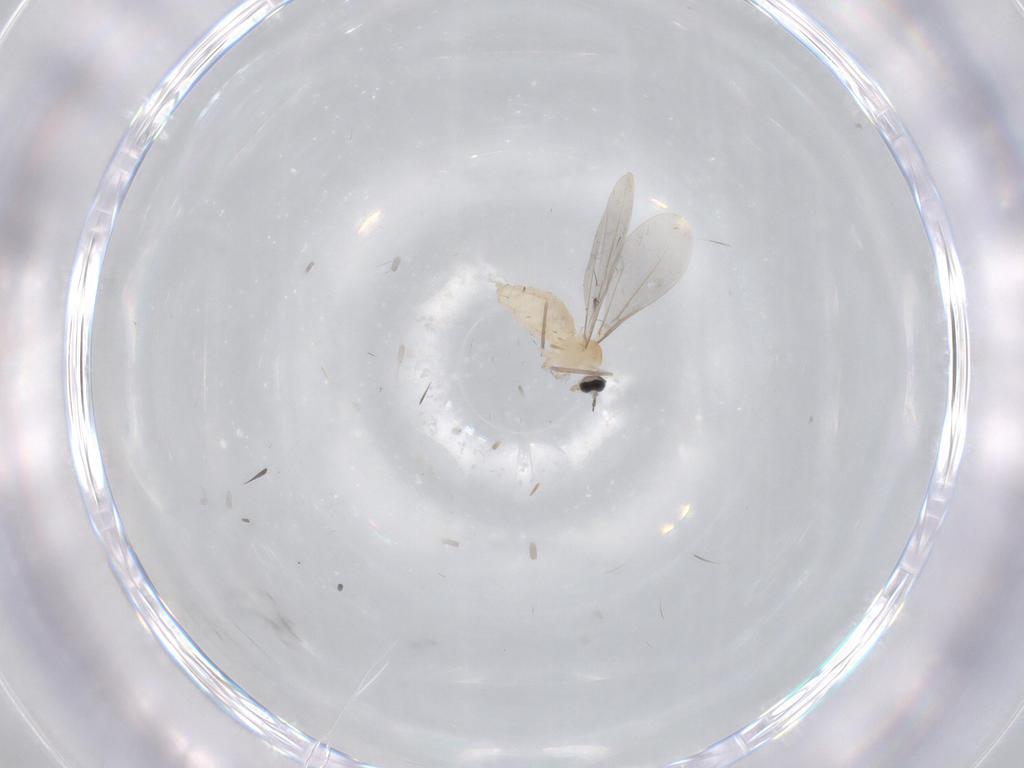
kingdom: Animalia
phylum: Arthropoda
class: Insecta
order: Diptera
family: Cecidomyiidae
